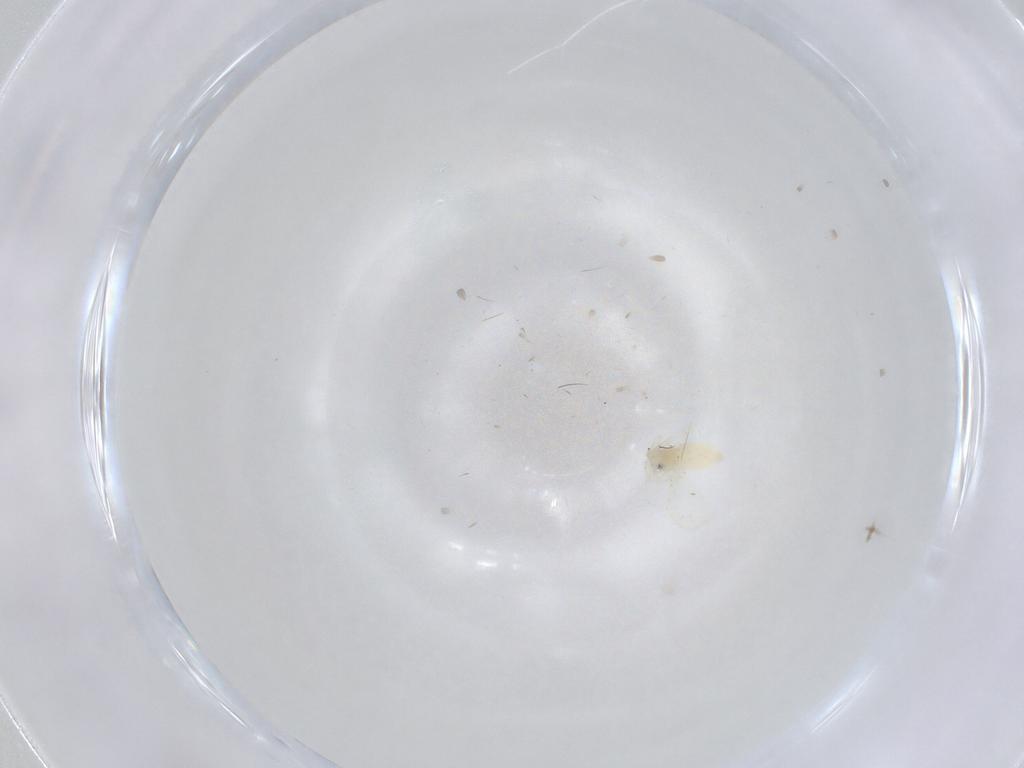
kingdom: Animalia
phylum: Arthropoda
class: Insecta
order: Hemiptera
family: Aleyrodidae
